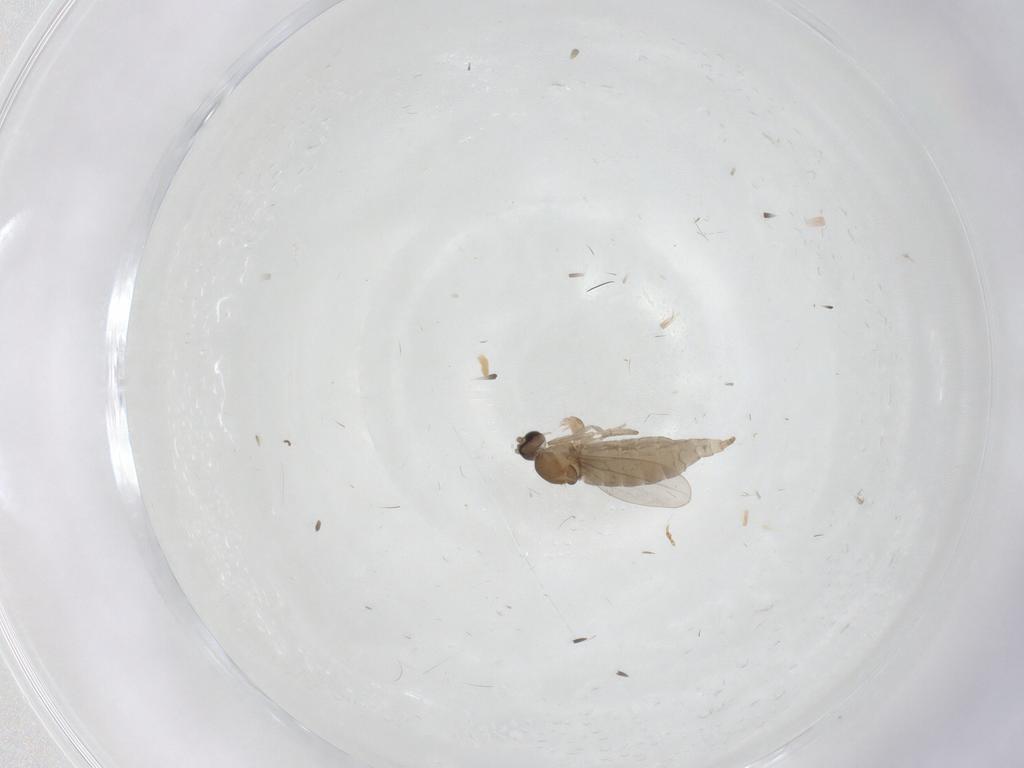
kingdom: Animalia
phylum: Arthropoda
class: Insecta
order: Diptera
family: Cecidomyiidae
